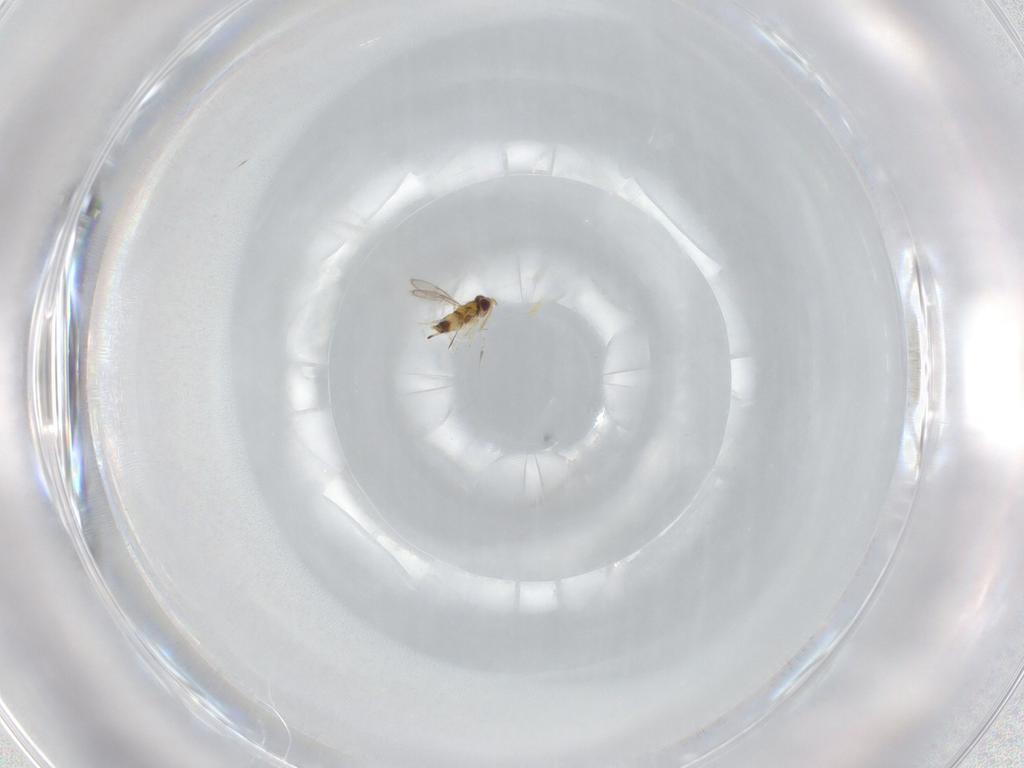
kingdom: Animalia
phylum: Arthropoda
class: Insecta
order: Hymenoptera
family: Aphelinidae
